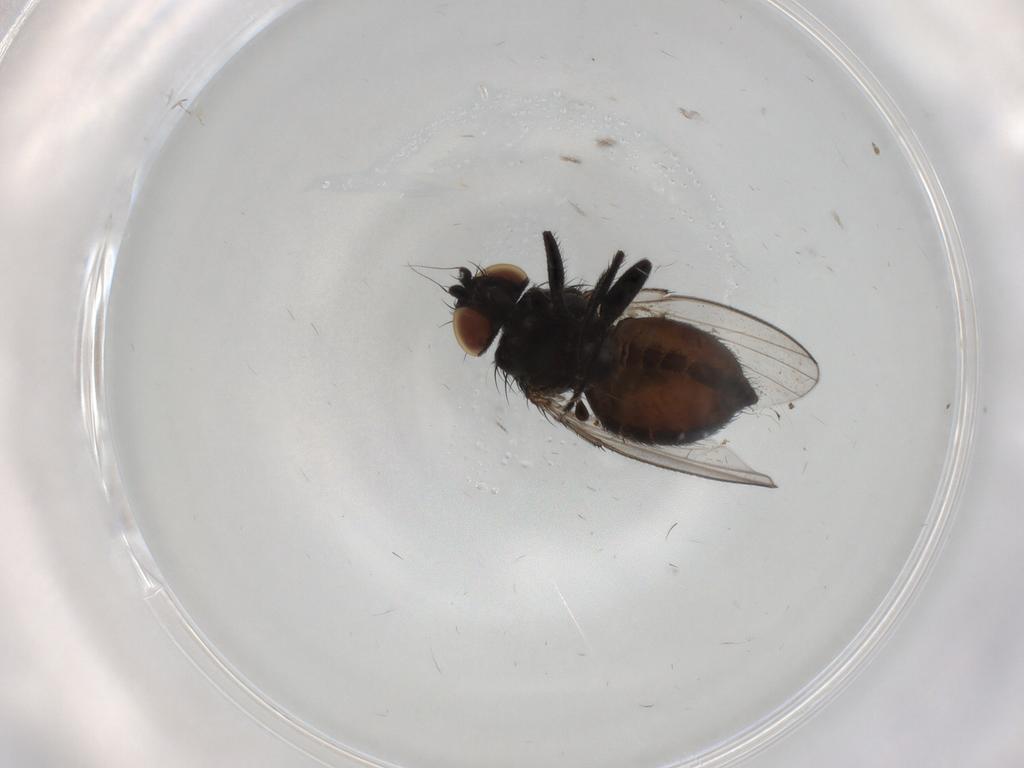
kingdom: Animalia
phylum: Arthropoda
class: Insecta
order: Diptera
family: Milichiidae
